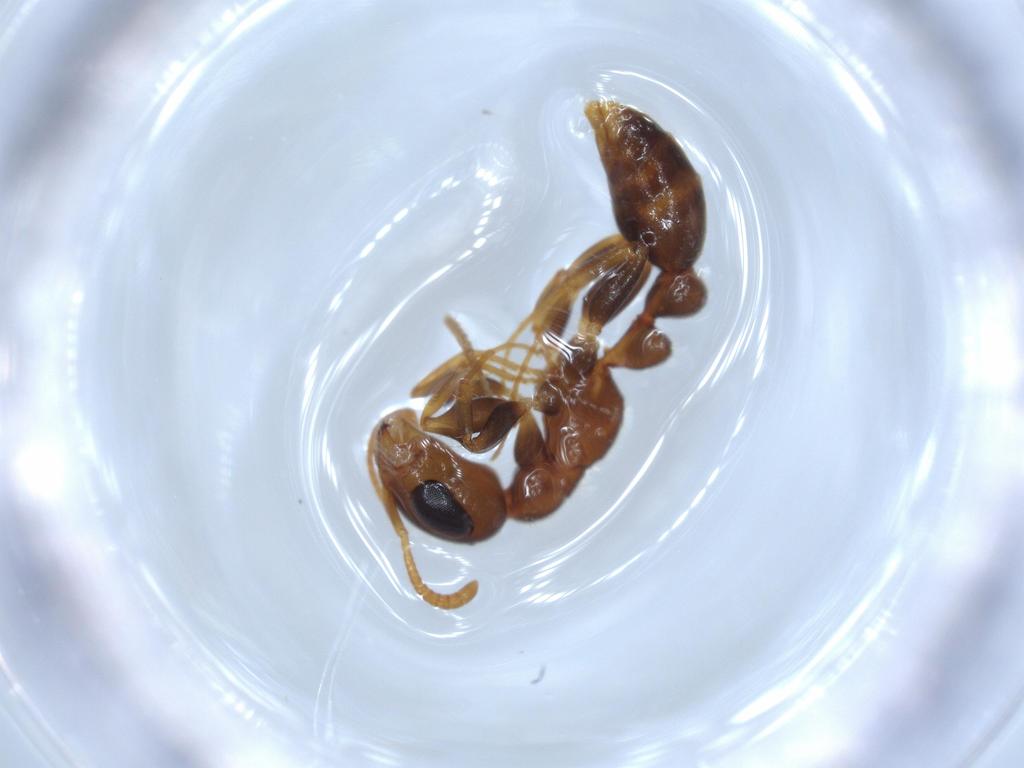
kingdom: Animalia
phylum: Arthropoda
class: Insecta
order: Hymenoptera
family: Formicidae
